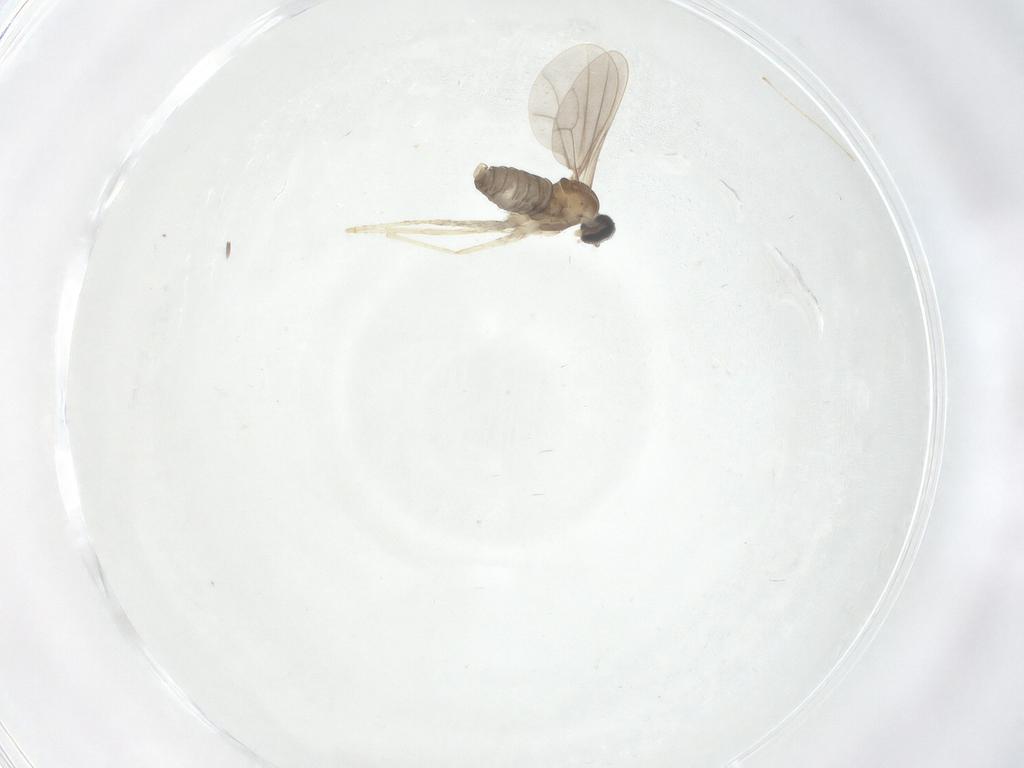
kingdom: Animalia
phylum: Arthropoda
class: Insecta
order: Diptera
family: Cecidomyiidae
